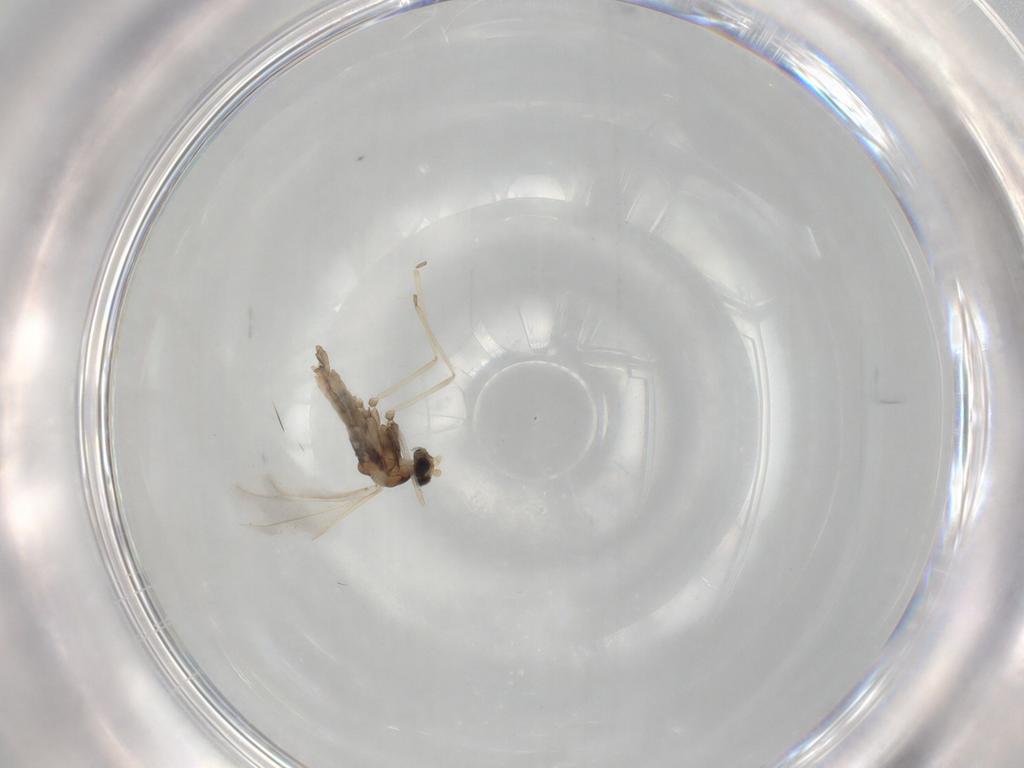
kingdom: Animalia
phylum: Arthropoda
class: Insecta
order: Diptera
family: Cecidomyiidae
